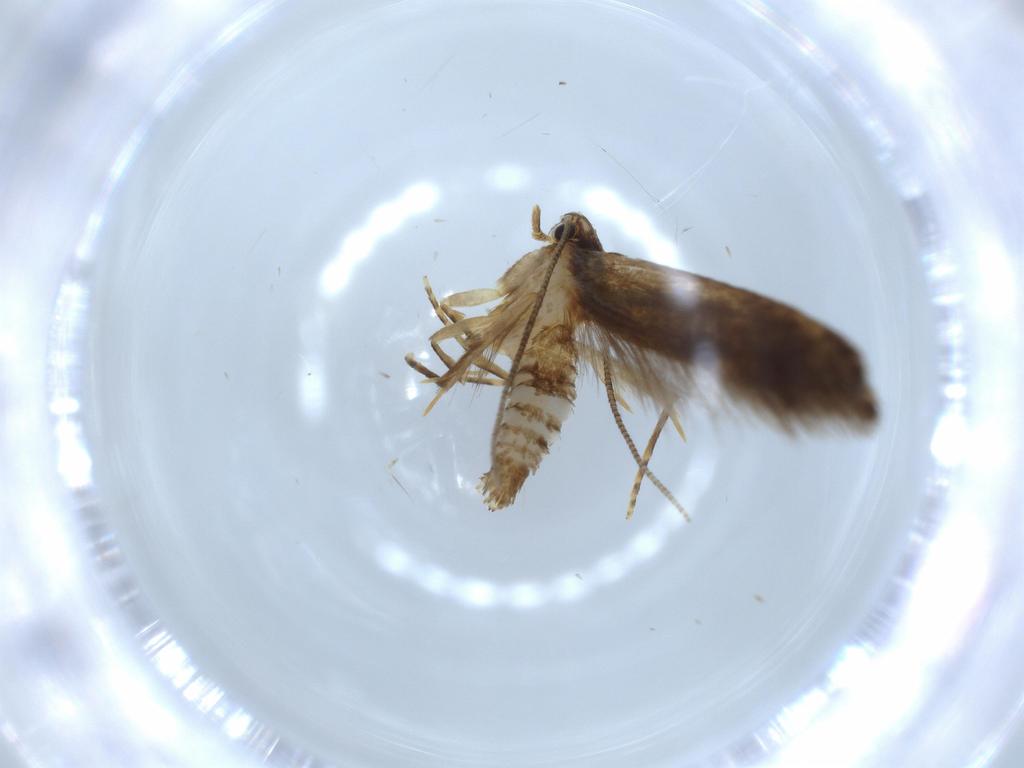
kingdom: Animalia
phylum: Arthropoda
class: Insecta
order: Lepidoptera
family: Tineidae
